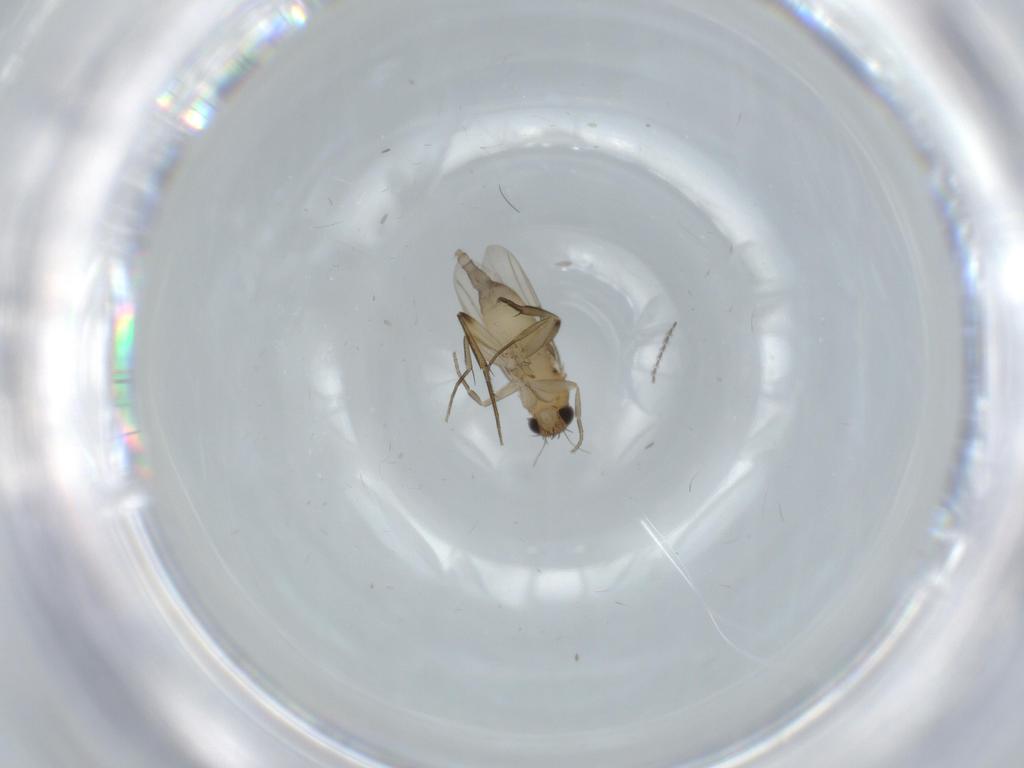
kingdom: Animalia
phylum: Arthropoda
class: Insecta
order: Diptera
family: Phoridae
